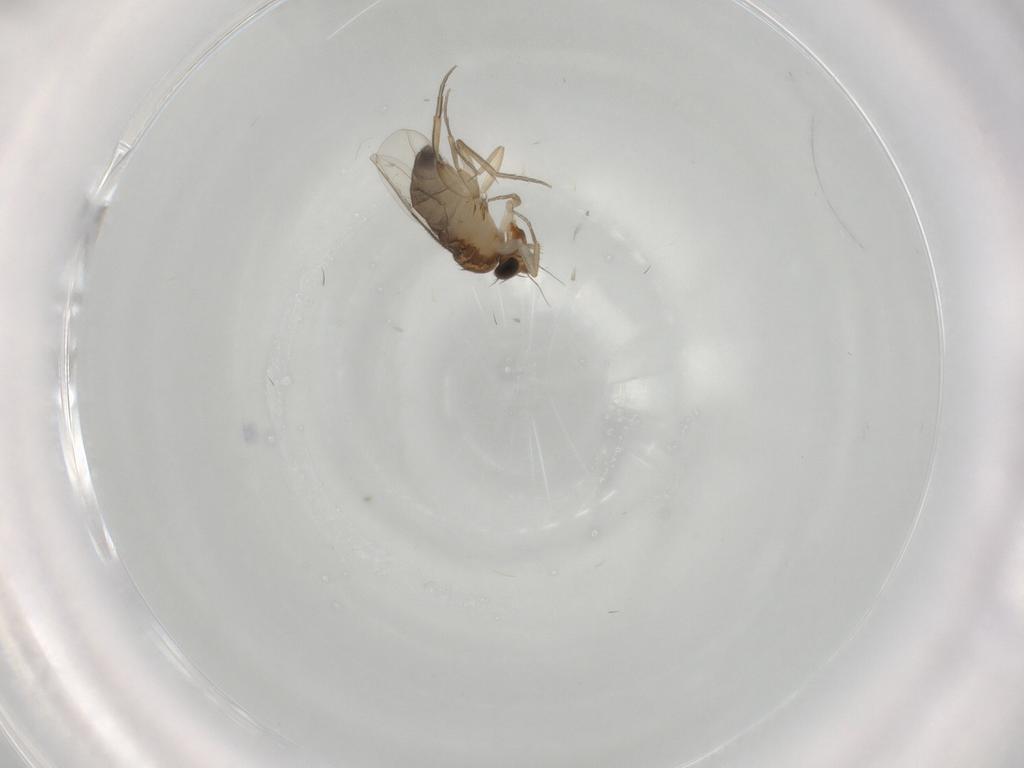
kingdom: Animalia
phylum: Arthropoda
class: Insecta
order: Diptera
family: Phoridae
